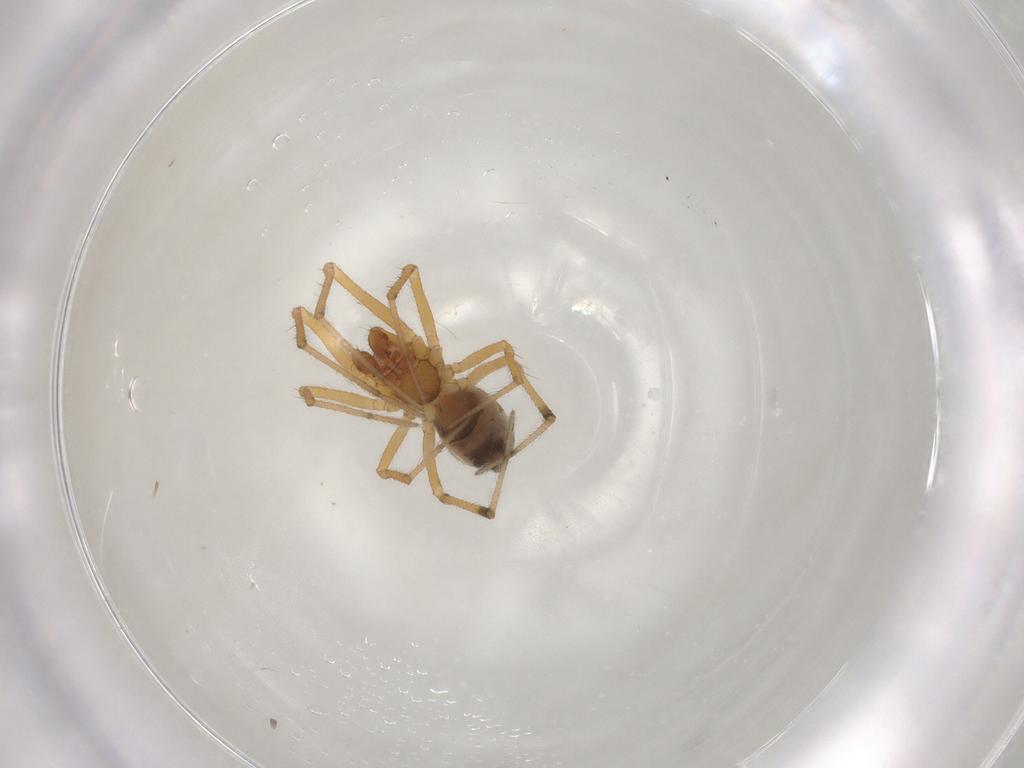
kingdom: Animalia
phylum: Arthropoda
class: Arachnida
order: Araneae
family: Theridiidae
